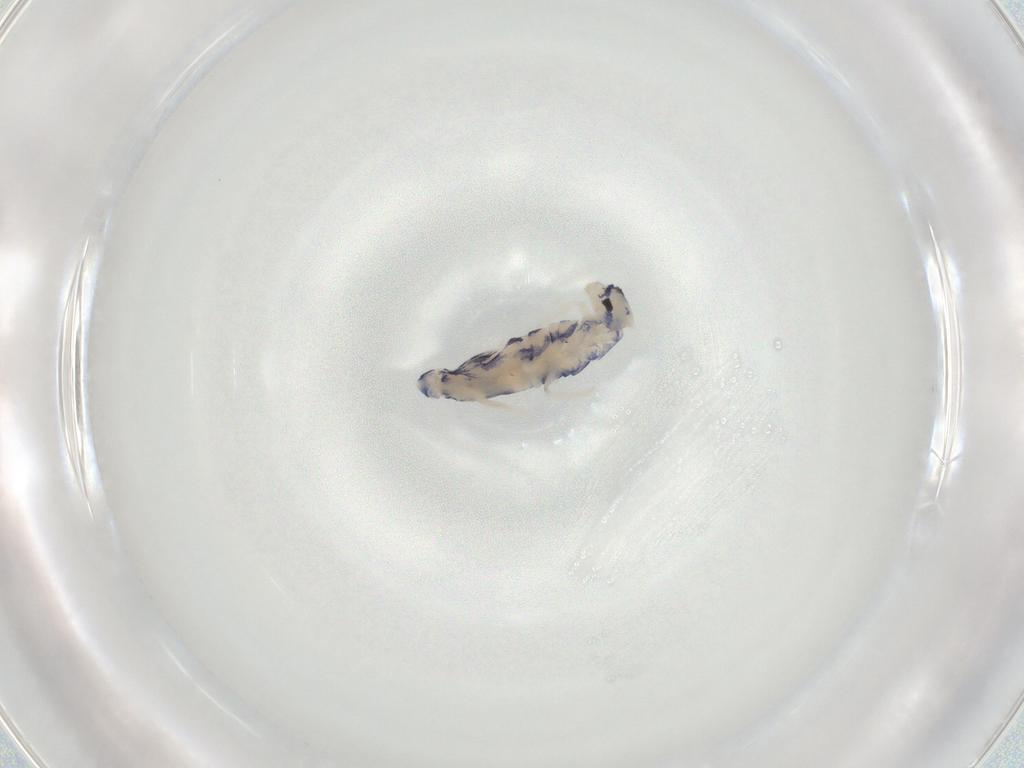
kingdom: Animalia
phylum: Arthropoda
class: Collembola
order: Entomobryomorpha
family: Entomobryidae
